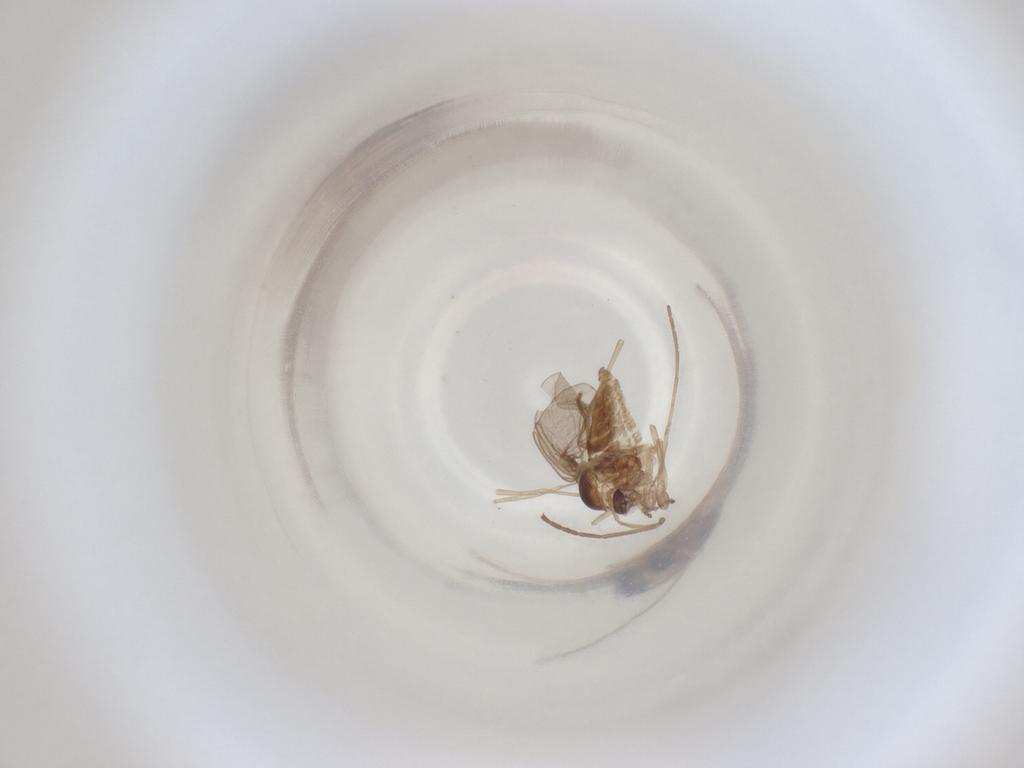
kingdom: Animalia
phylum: Arthropoda
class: Insecta
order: Diptera
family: Cecidomyiidae
